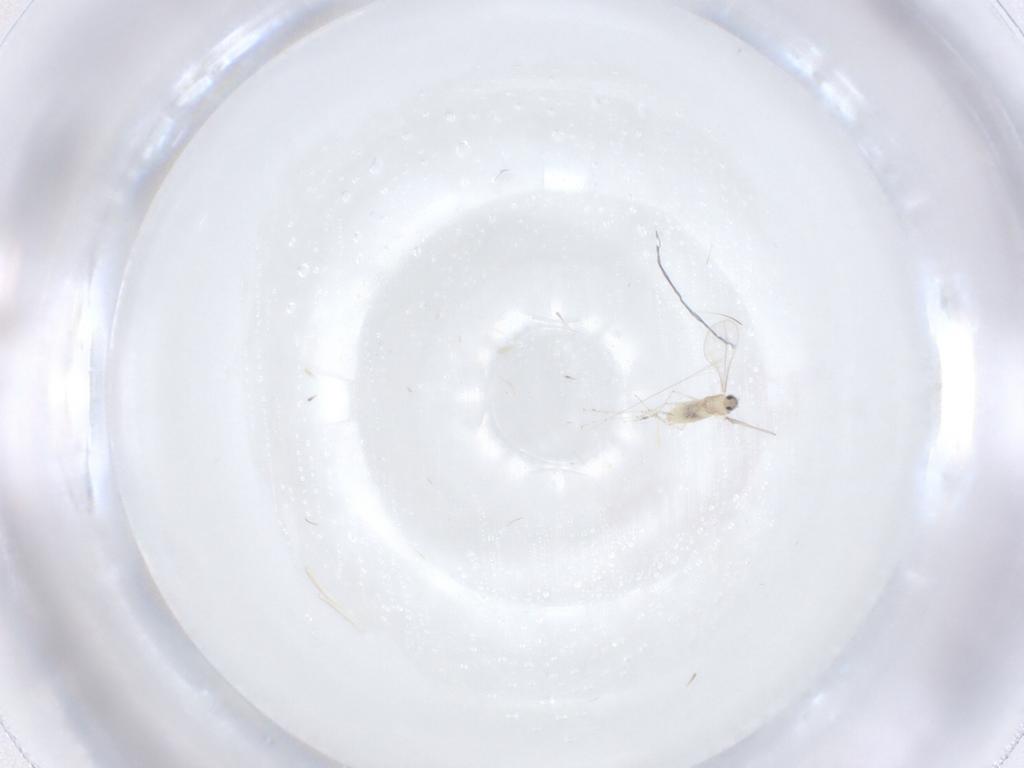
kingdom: Animalia
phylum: Arthropoda
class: Insecta
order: Diptera
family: Cecidomyiidae
